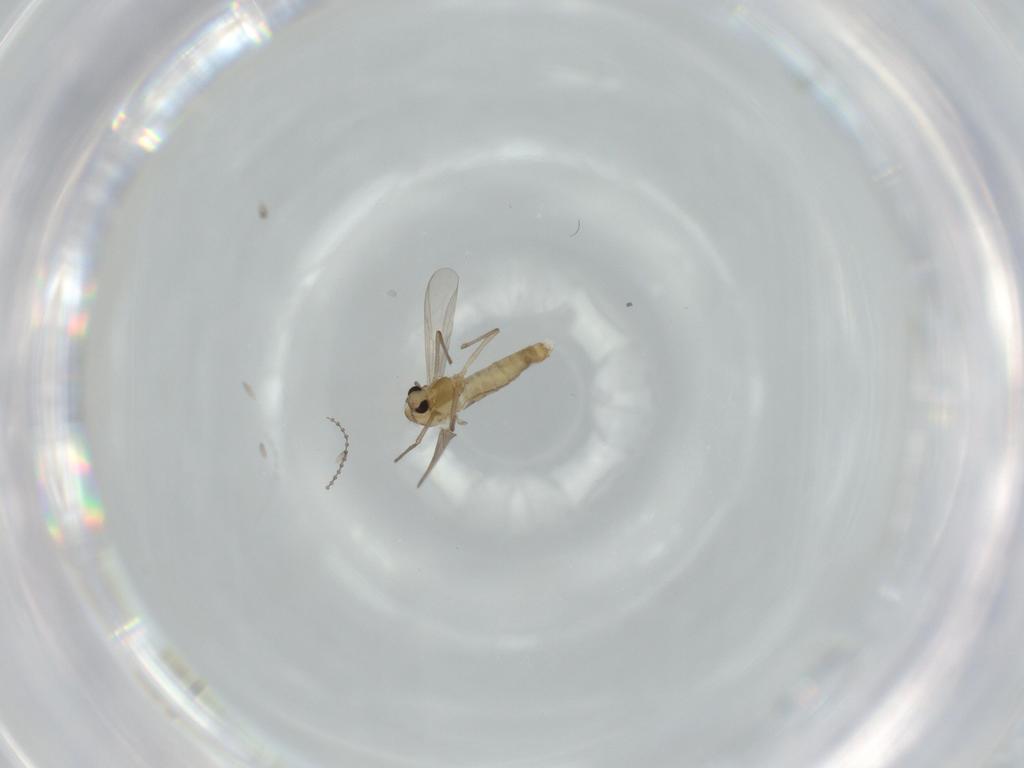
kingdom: Animalia
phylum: Arthropoda
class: Insecta
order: Diptera
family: Chironomidae
